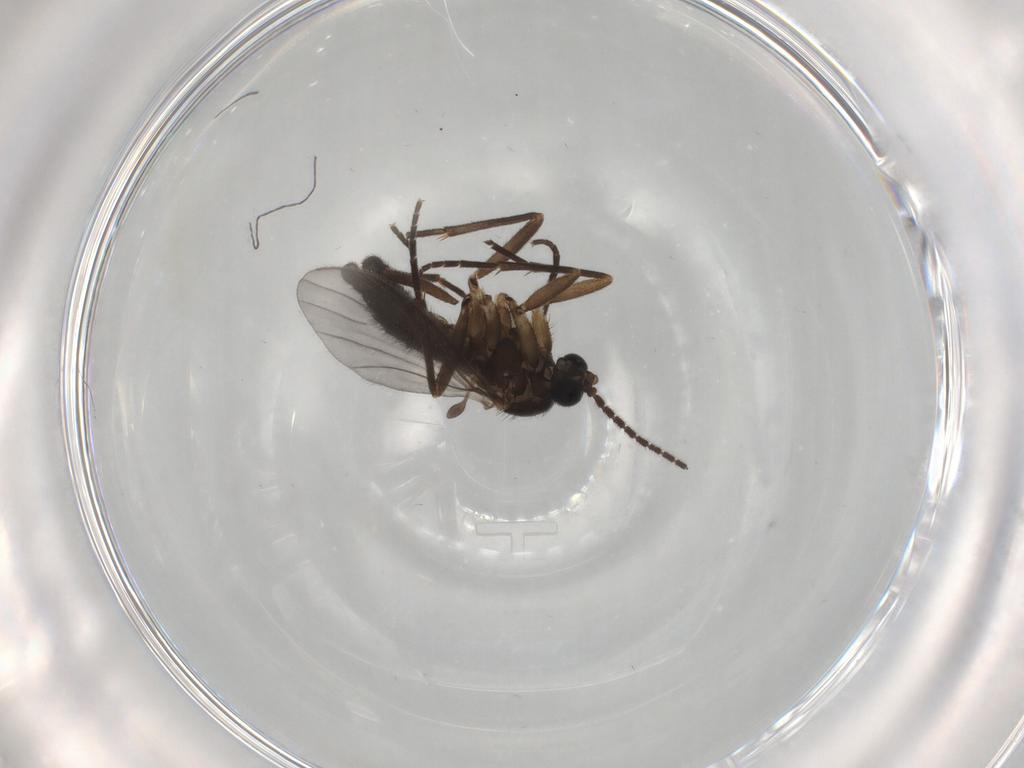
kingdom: Animalia
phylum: Arthropoda
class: Insecta
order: Diptera
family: Sciaridae
